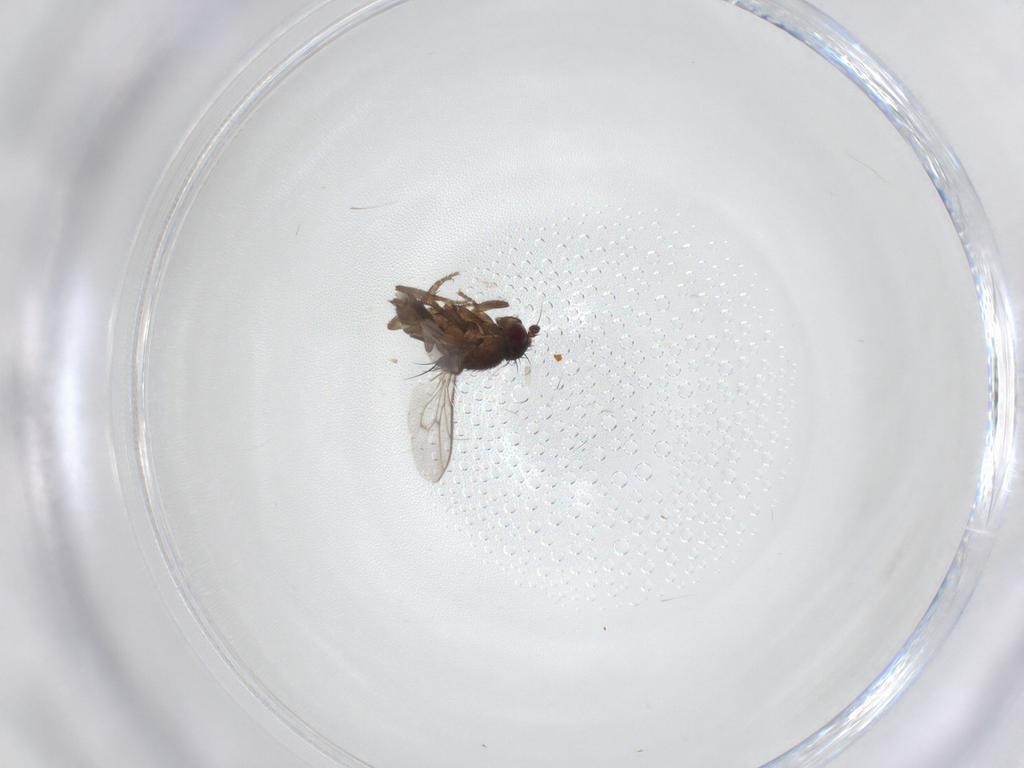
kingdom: Animalia
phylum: Arthropoda
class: Insecta
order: Diptera
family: Sphaeroceridae
